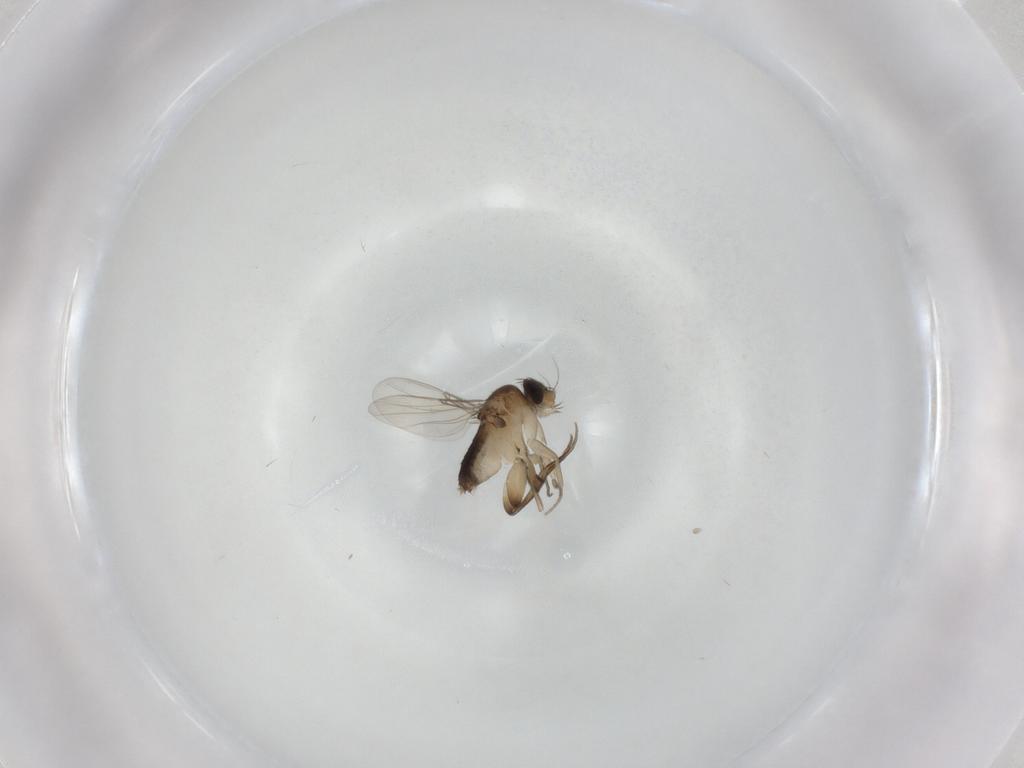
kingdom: Animalia
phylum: Arthropoda
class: Insecta
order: Diptera
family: Phoridae
